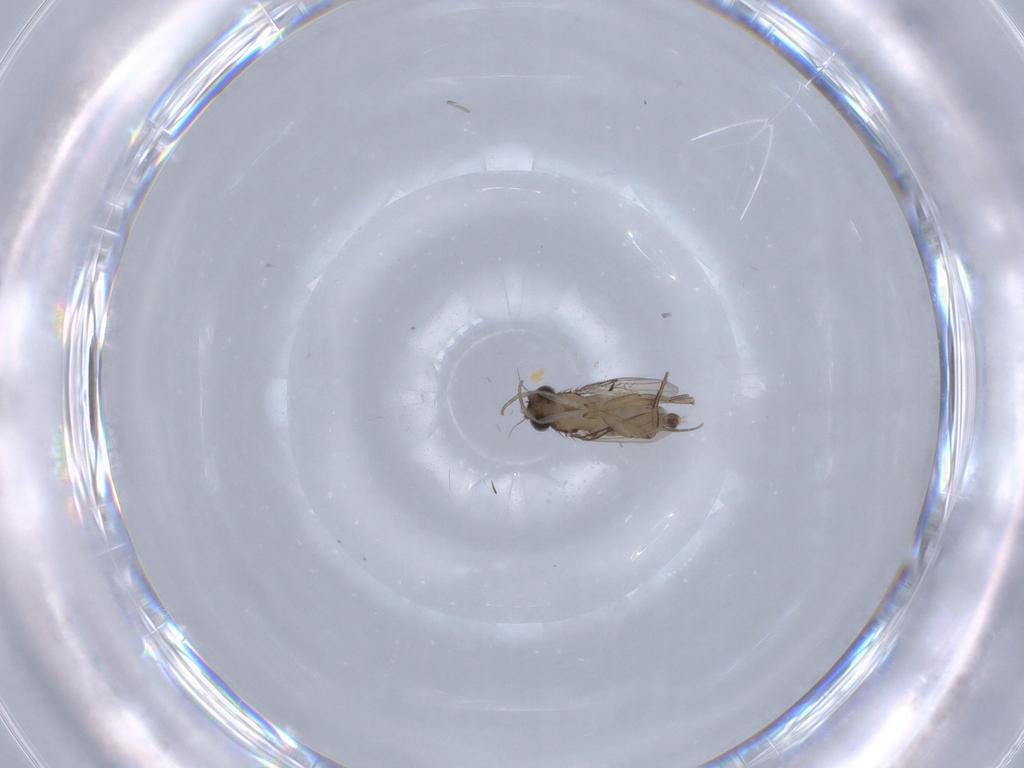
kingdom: Animalia
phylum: Arthropoda
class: Insecta
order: Diptera
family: Phoridae
